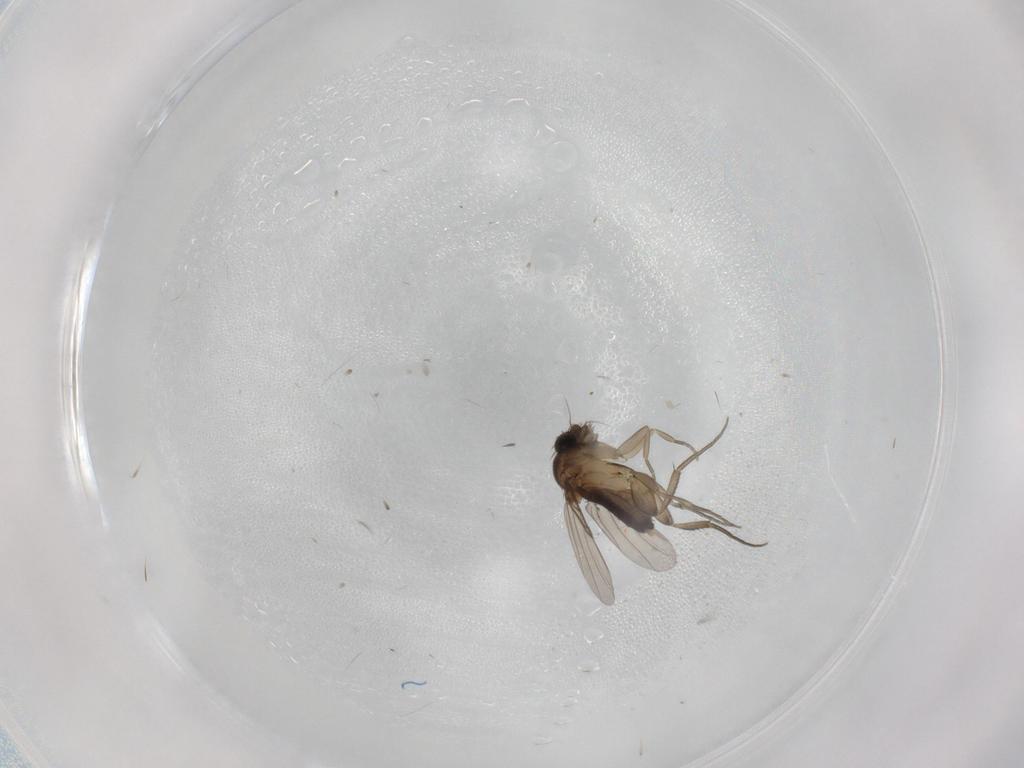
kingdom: Animalia
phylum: Arthropoda
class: Insecta
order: Diptera
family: Phoridae
